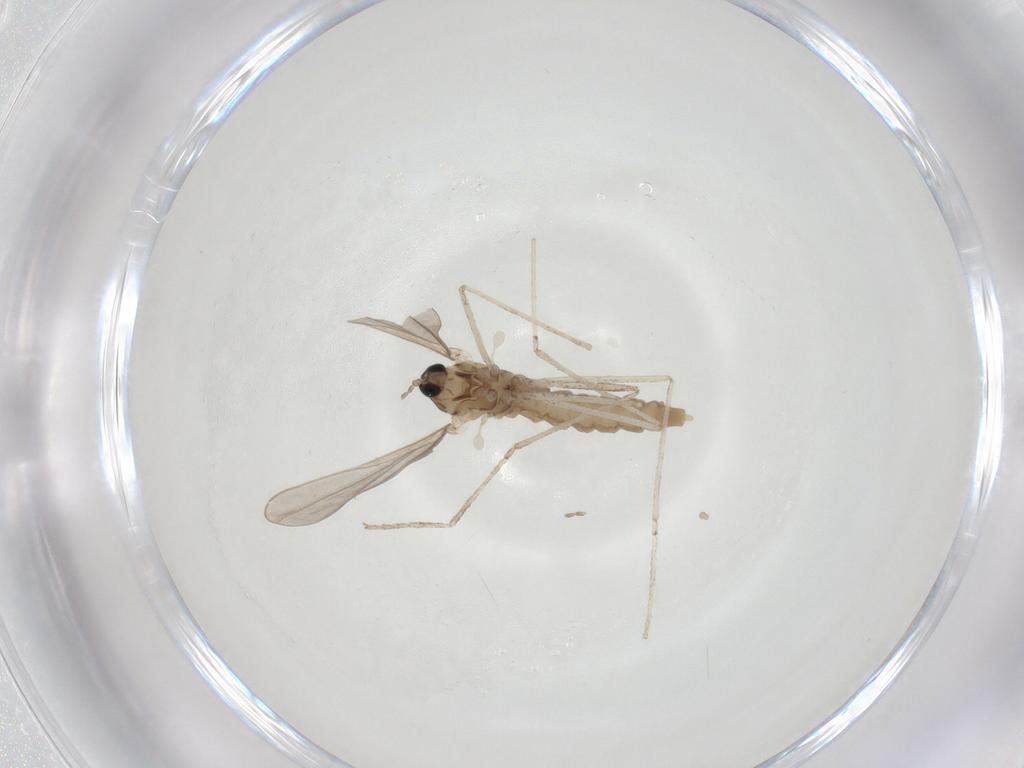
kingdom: Animalia
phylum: Arthropoda
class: Insecta
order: Diptera
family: Cecidomyiidae
